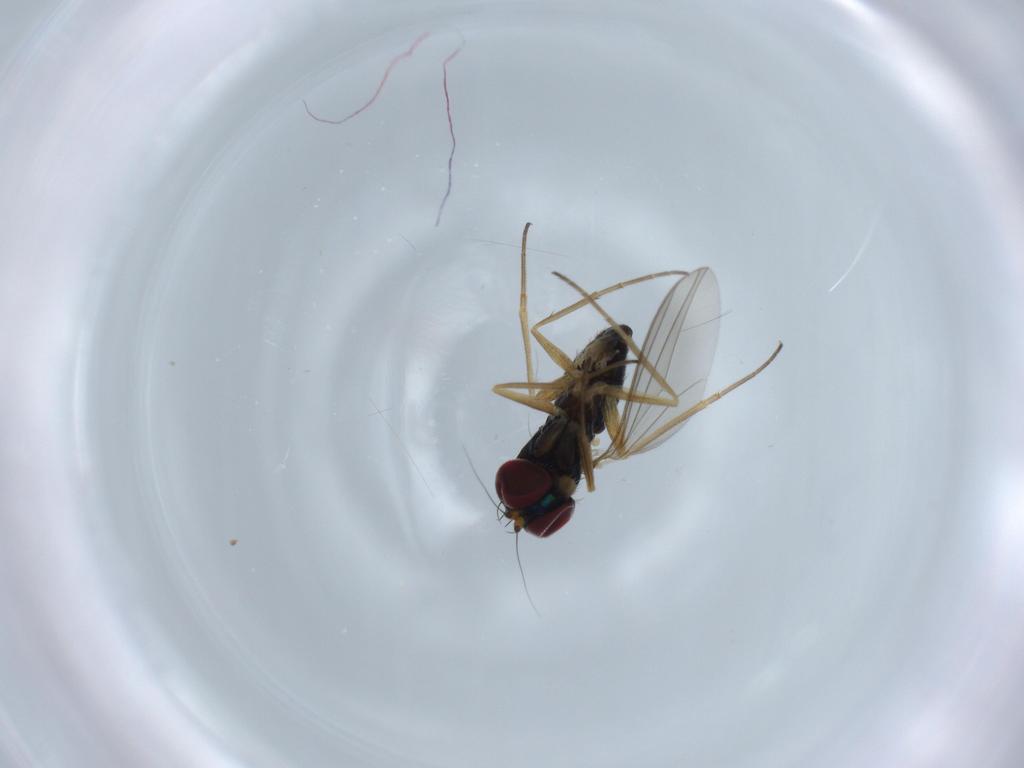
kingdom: Animalia
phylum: Arthropoda
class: Insecta
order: Diptera
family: Dolichopodidae
